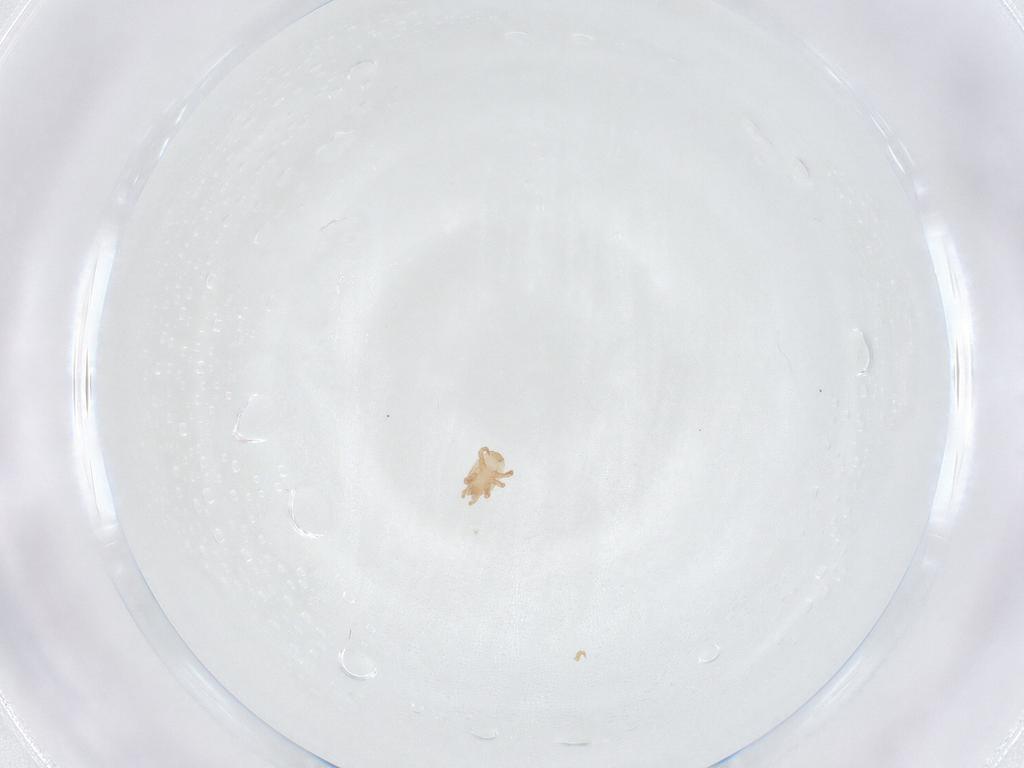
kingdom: Animalia
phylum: Arthropoda
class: Arachnida
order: Mesostigmata
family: Halolaelapidae
